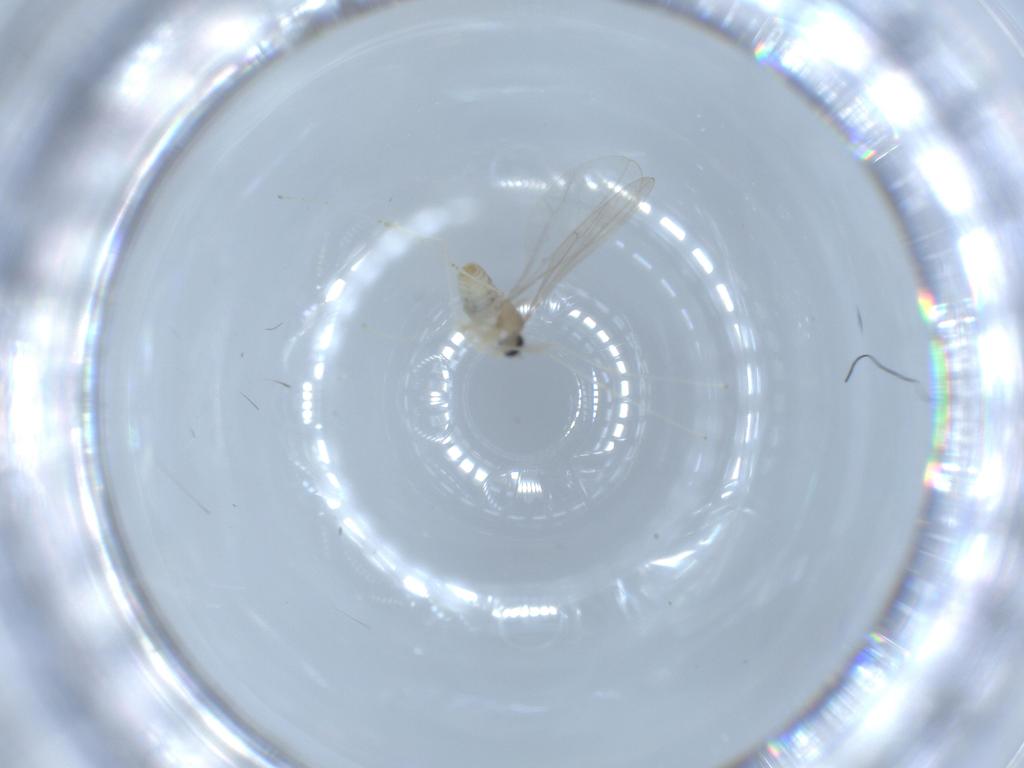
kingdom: Animalia
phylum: Arthropoda
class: Insecta
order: Diptera
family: Cecidomyiidae
